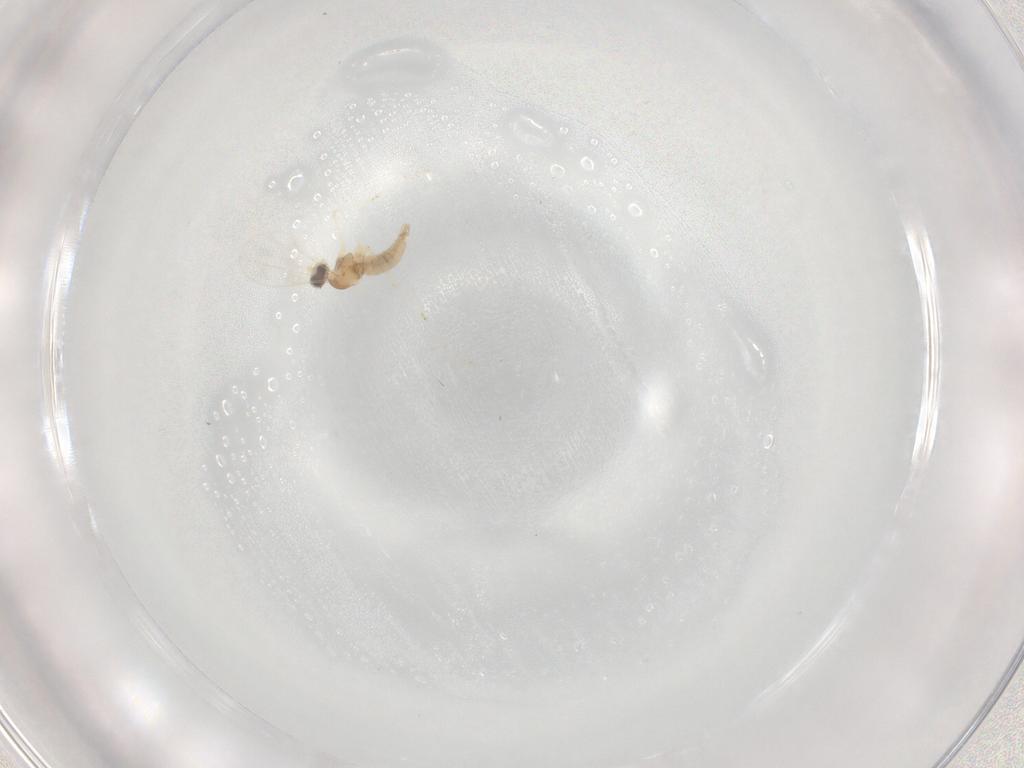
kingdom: Animalia
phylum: Arthropoda
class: Insecta
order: Diptera
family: Cecidomyiidae
